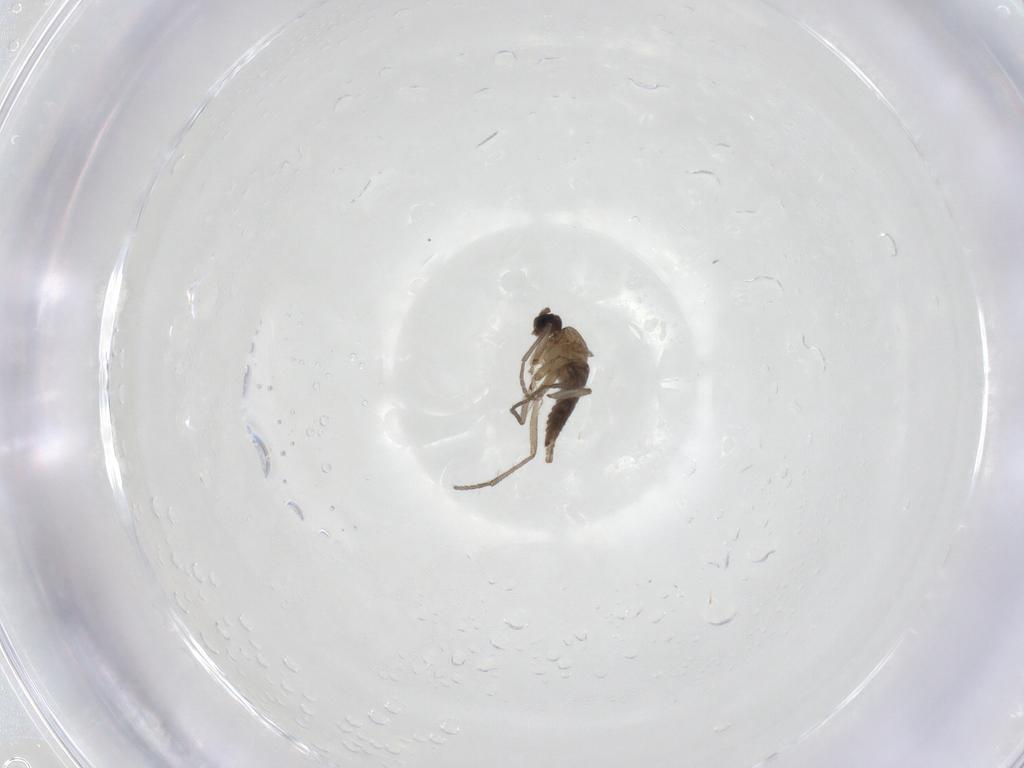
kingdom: Animalia
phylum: Arthropoda
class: Insecta
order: Diptera
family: Sciaridae
